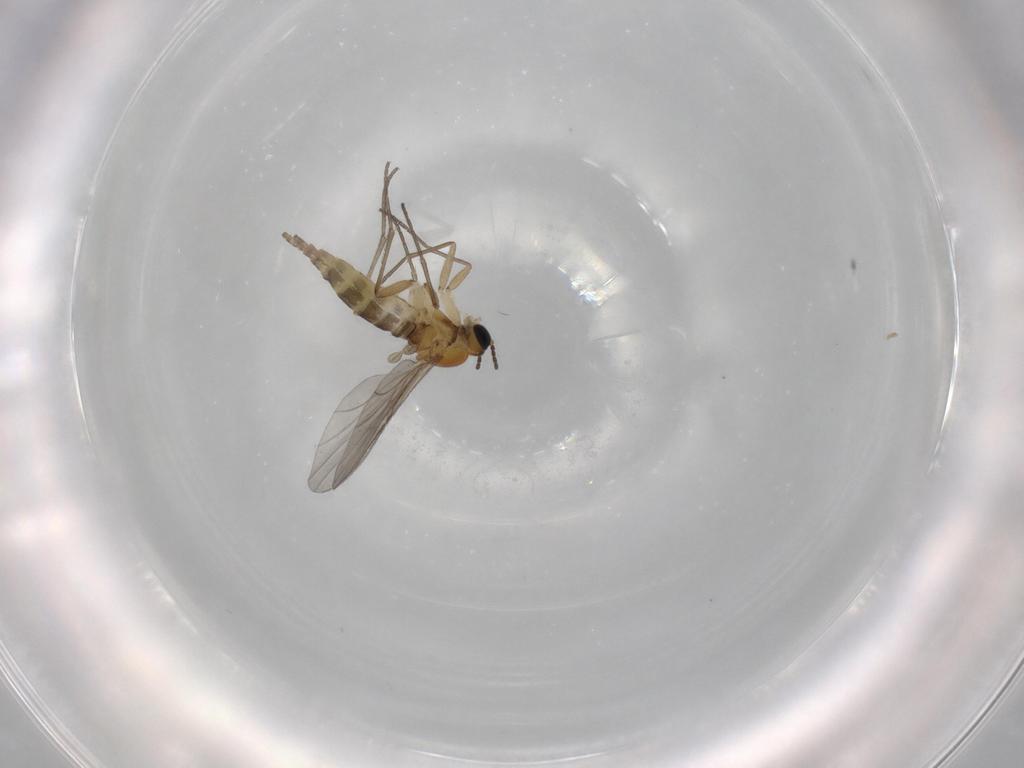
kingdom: Animalia
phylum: Arthropoda
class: Insecta
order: Diptera
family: Sciaridae
